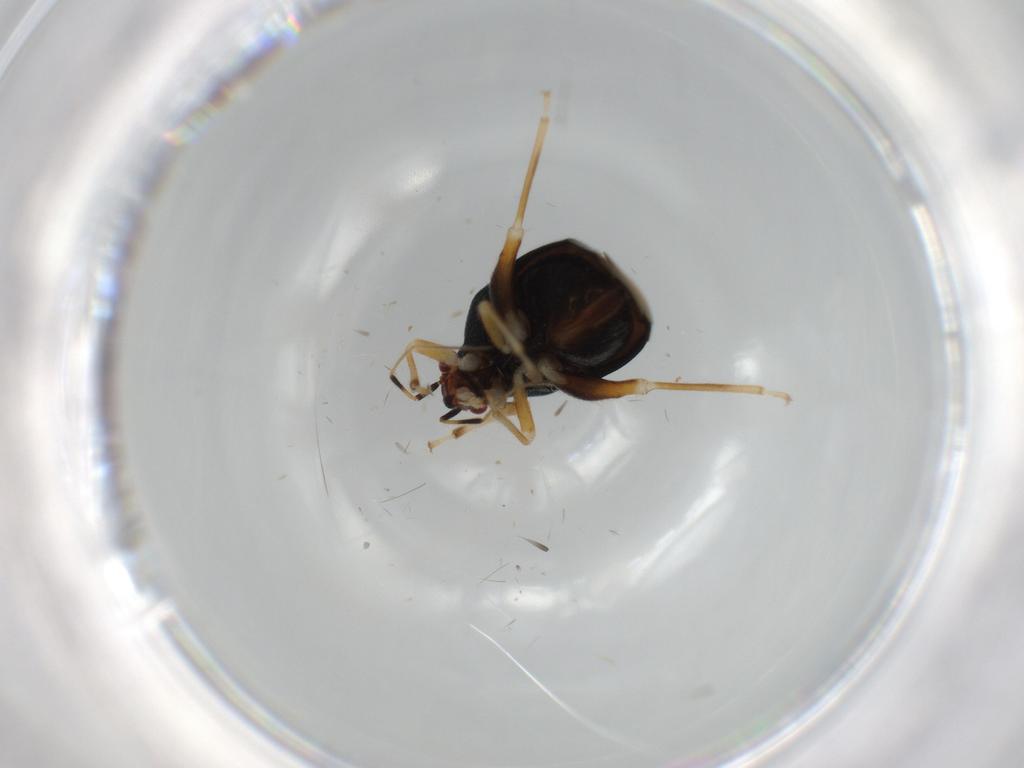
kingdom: Animalia
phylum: Arthropoda
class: Insecta
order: Hemiptera
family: Miridae
